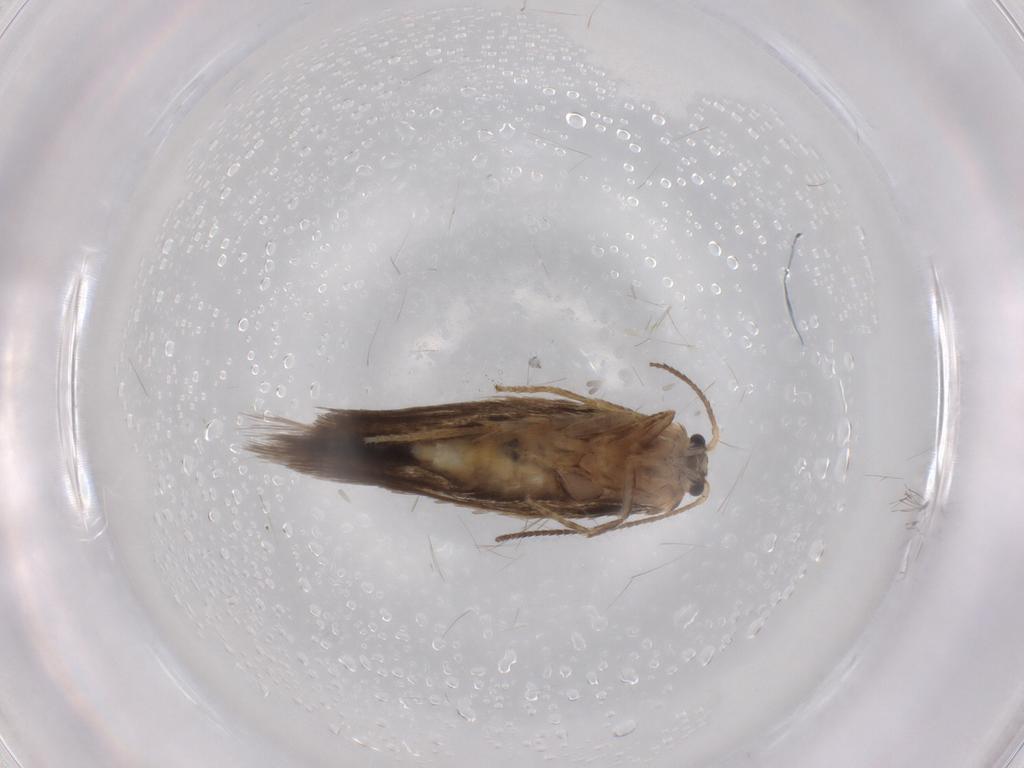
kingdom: Animalia
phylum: Arthropoda
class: Insecta
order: Lepidoptera
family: Nepticulidae
